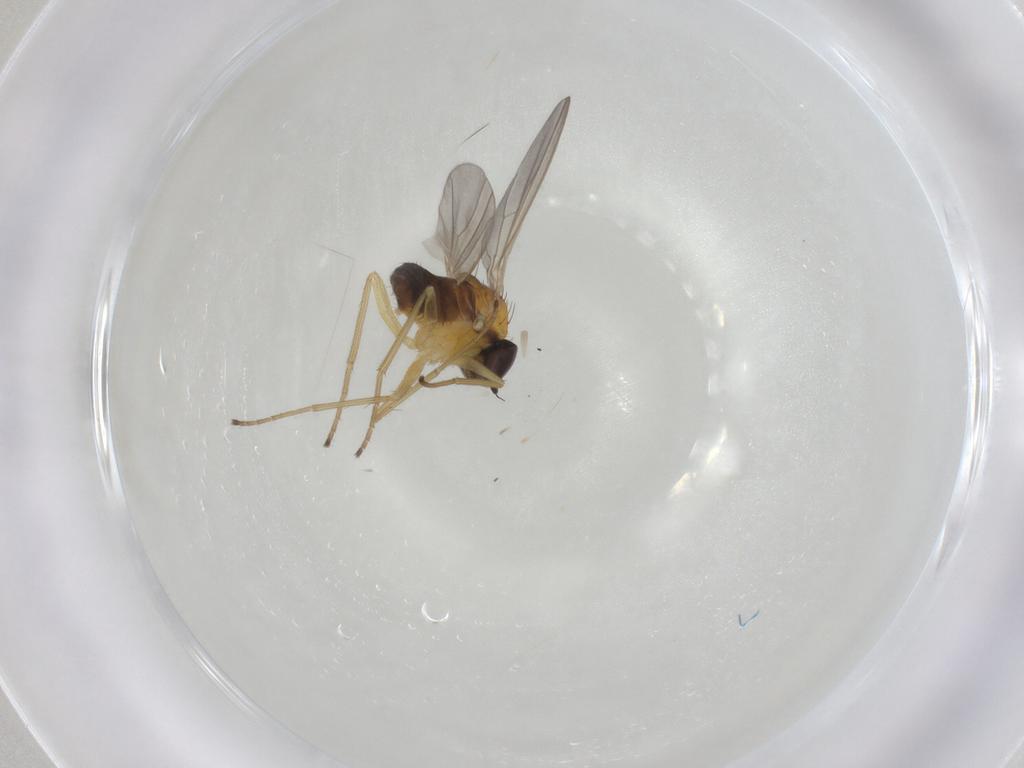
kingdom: Animalia
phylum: Arthropoda
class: Insecta
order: Diptera
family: Dolichopodidae
